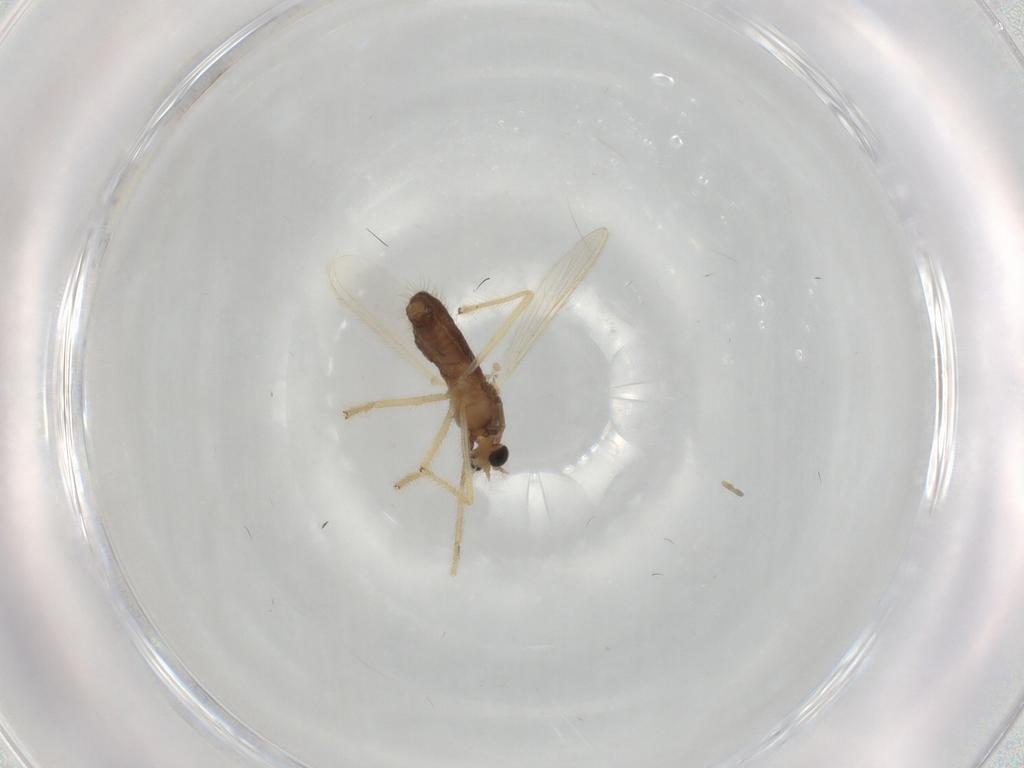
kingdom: Animalia
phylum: Arthropoda
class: Insecta
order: Diptera
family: Chironomidae
